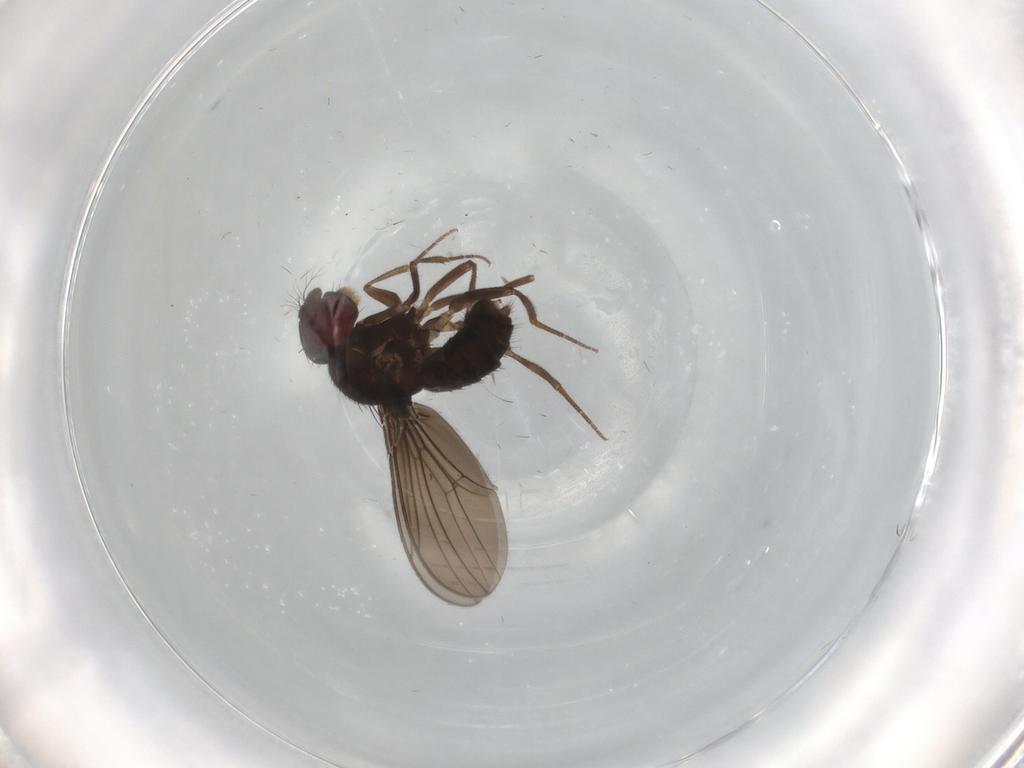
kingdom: Animalia
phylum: Arthropoda
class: Insecta
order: Diptera
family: Drosophilidae
